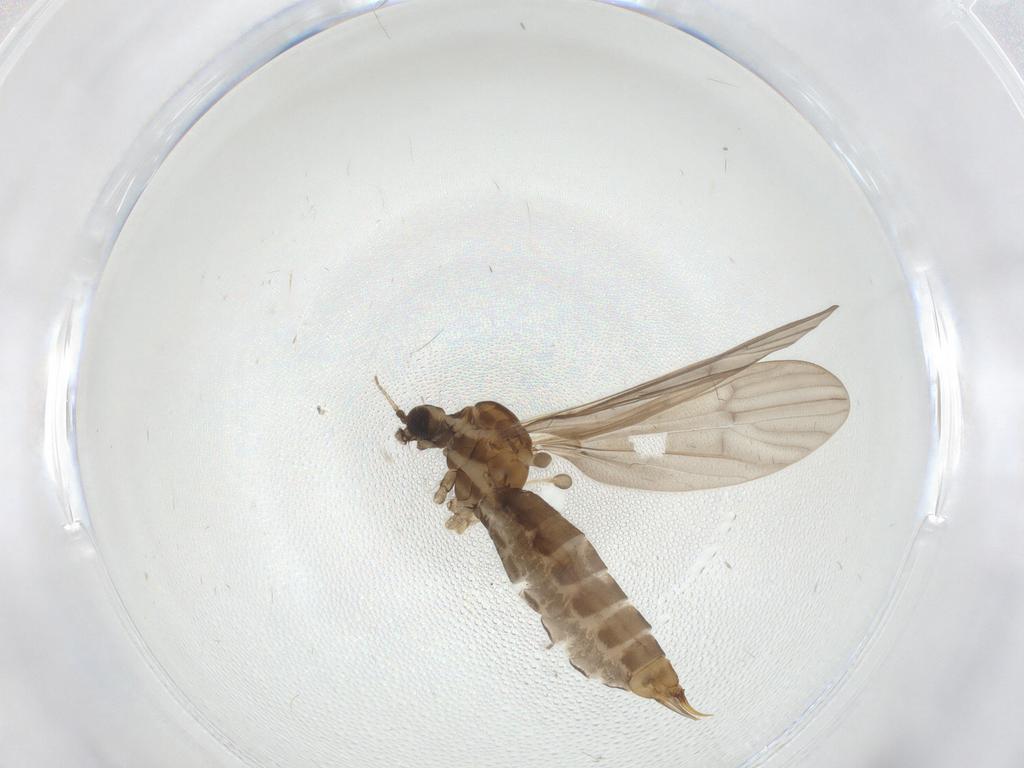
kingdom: Animalia
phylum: Arthropoda
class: Insecta
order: Diptera
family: Limoniidae
